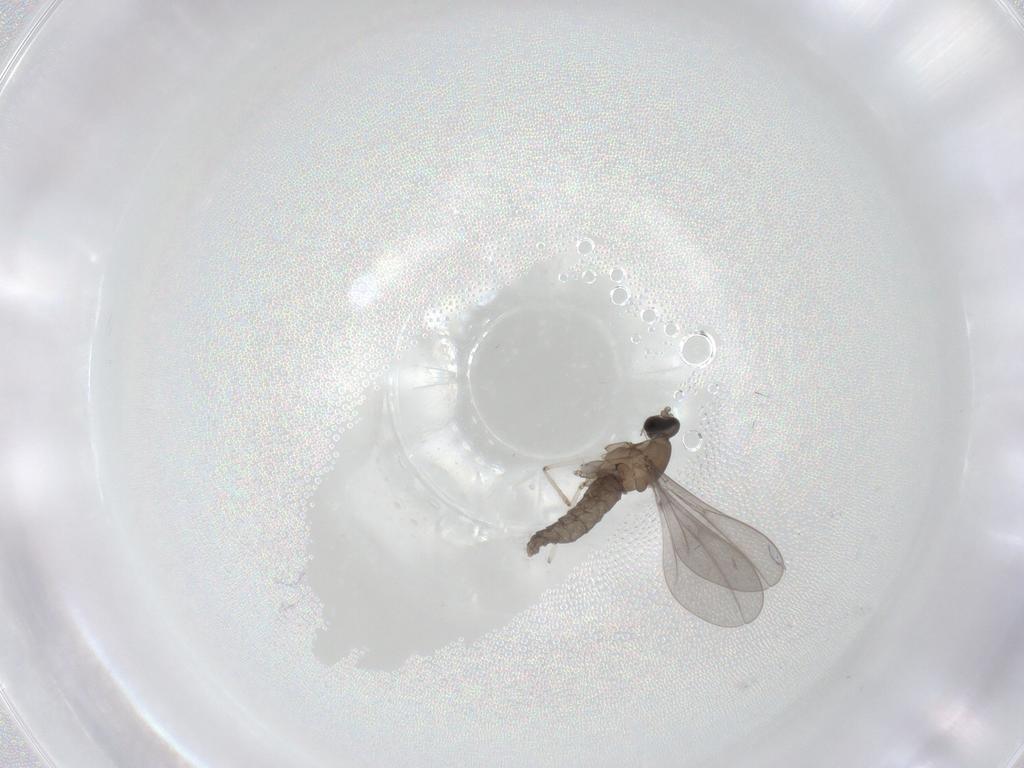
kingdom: Animalia
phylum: Arthropoda
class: Insecta
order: Diptera
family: Cecidomyiidae
